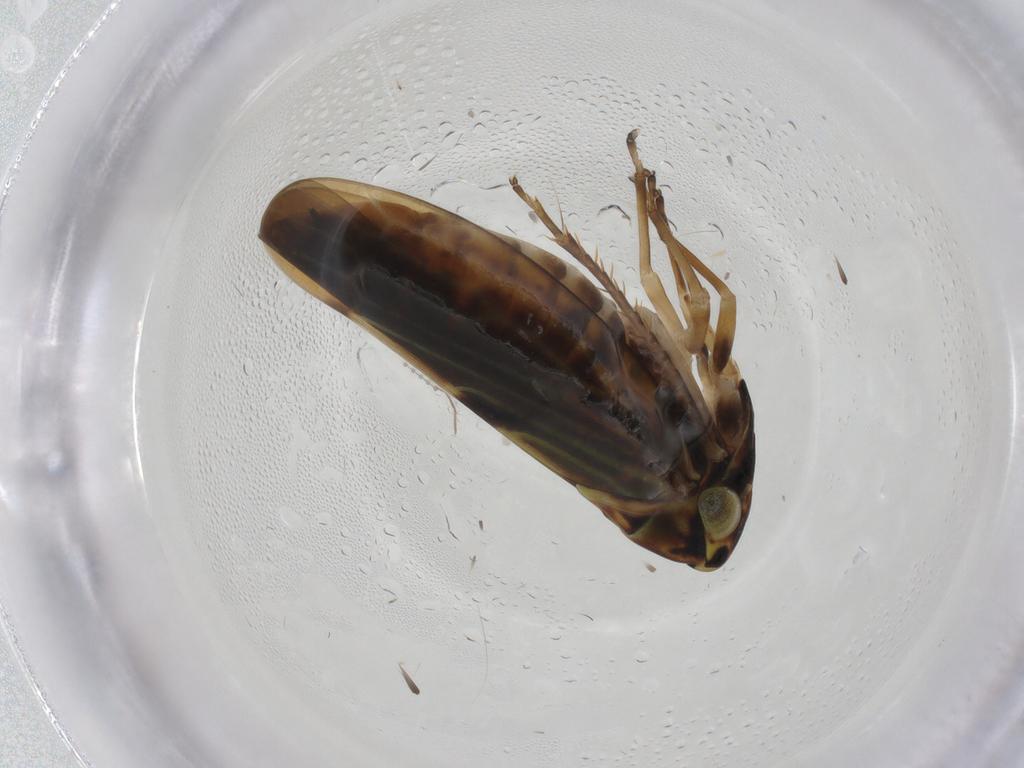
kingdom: Animalia
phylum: Arthropoda
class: Insecta
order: Hemiptera
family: Cicadellidae
